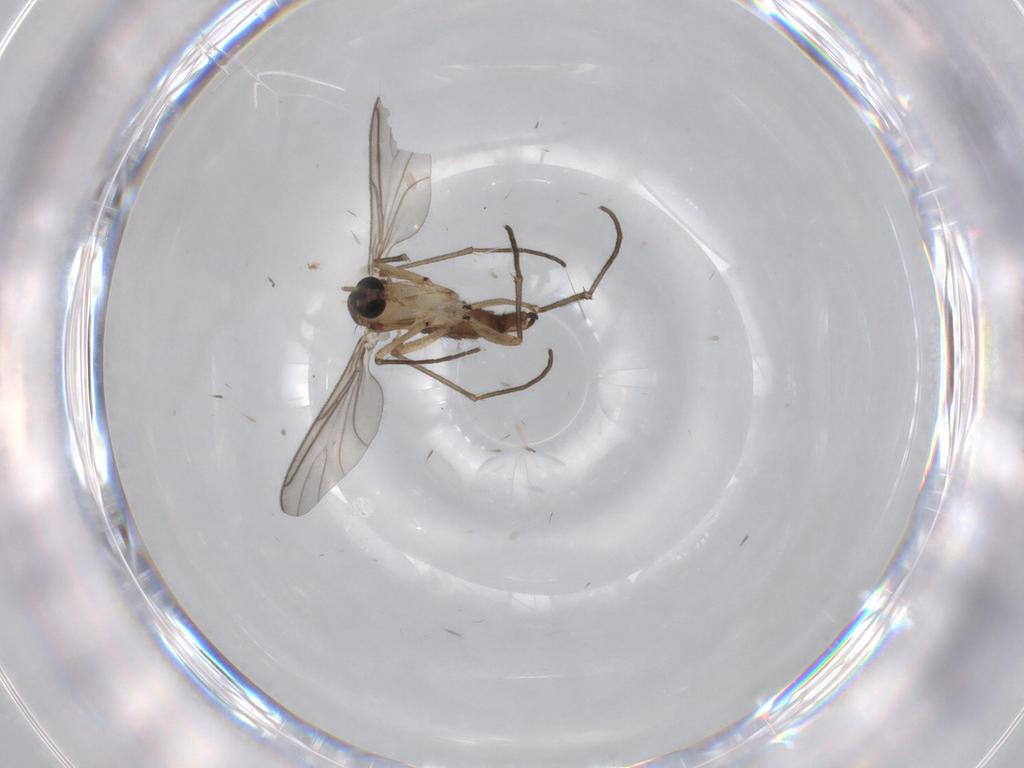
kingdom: Animalia
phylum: Arthropoda
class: Insecta
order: Diptera
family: Sciaridae
